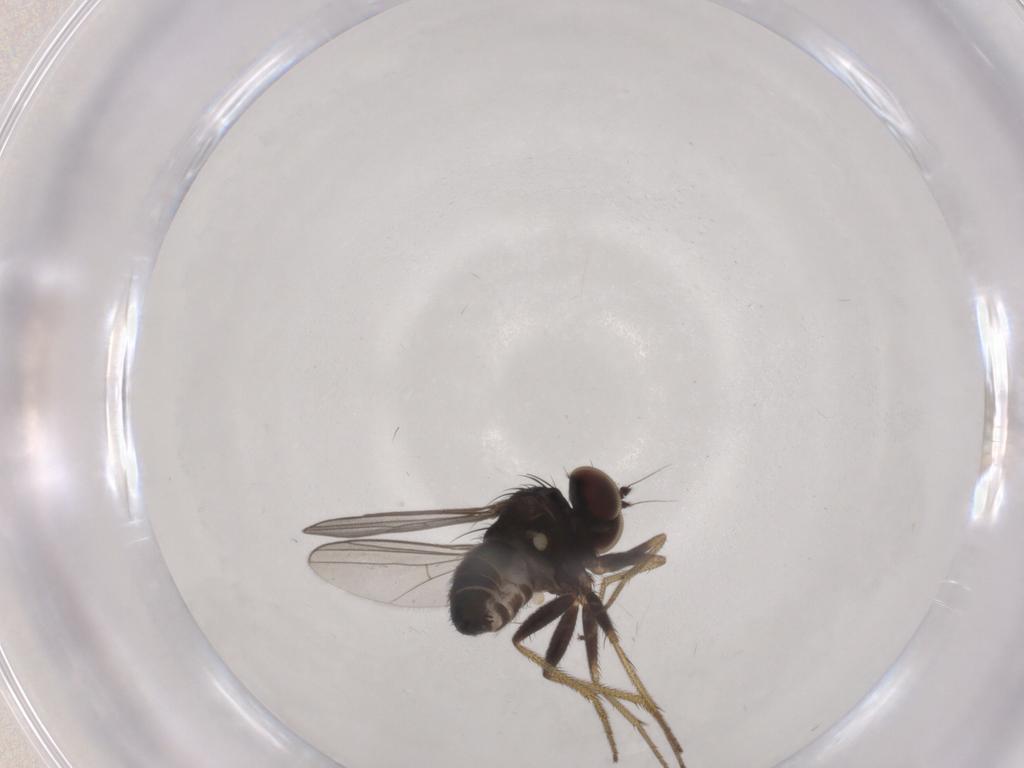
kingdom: Animalia
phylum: Arthropoda
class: Insecta
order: Diptera
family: Dolichopodidae
